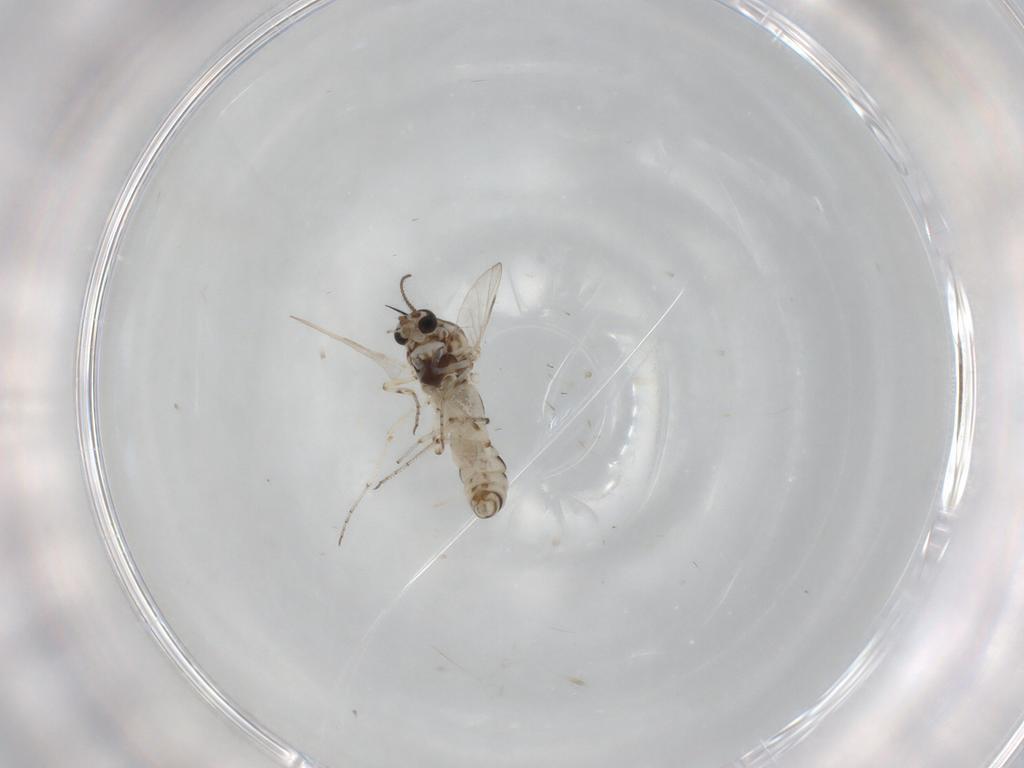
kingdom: Animalia
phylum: Arthropoda
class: Insecta
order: Diptera
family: Ceratopogonidae
